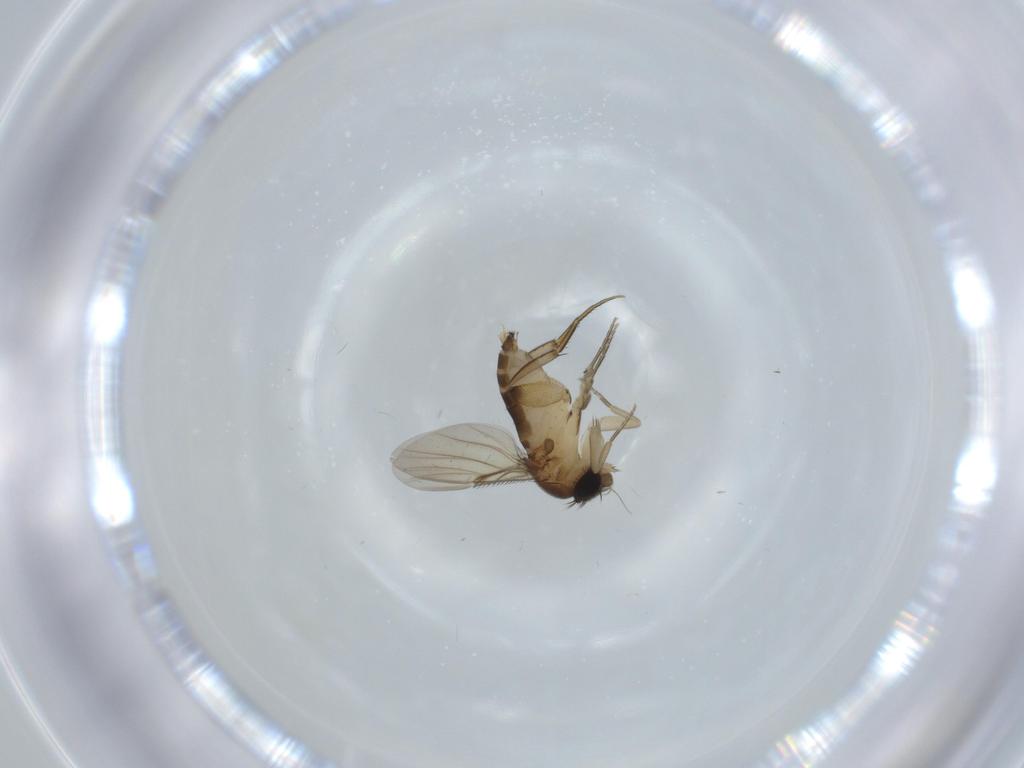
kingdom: Animalia
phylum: Arthropoda
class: Insecta
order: Diptera
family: Phoridae
